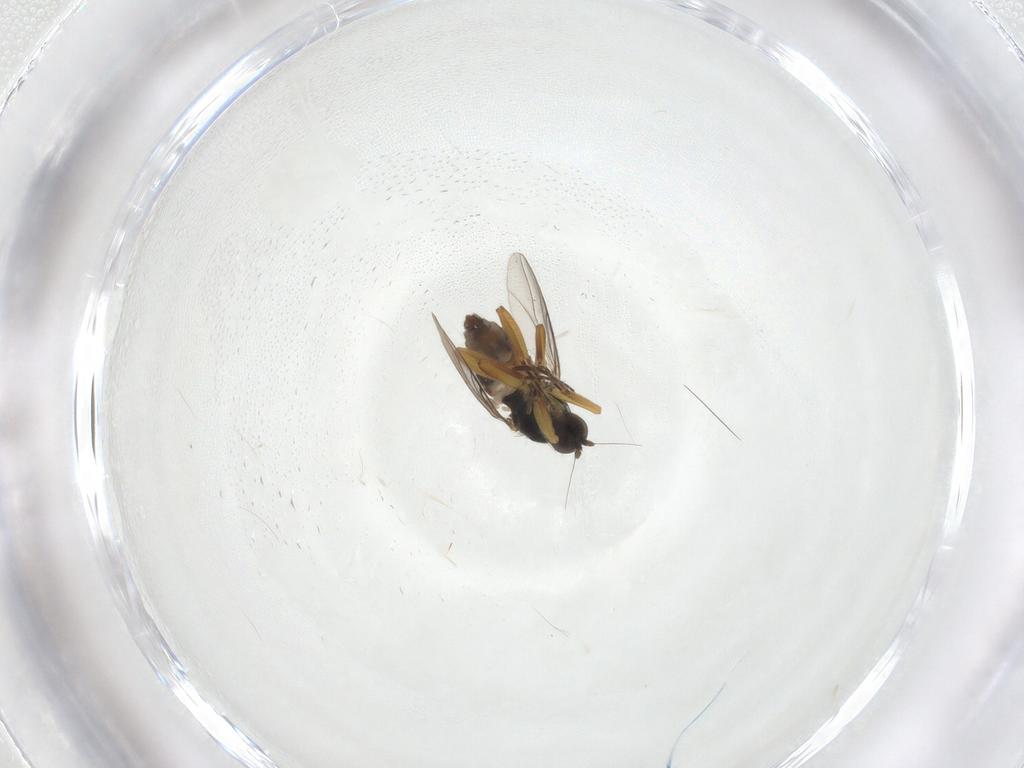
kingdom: Animalia
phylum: Arthropoda
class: Insecta
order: Diptera
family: Hybotidae
